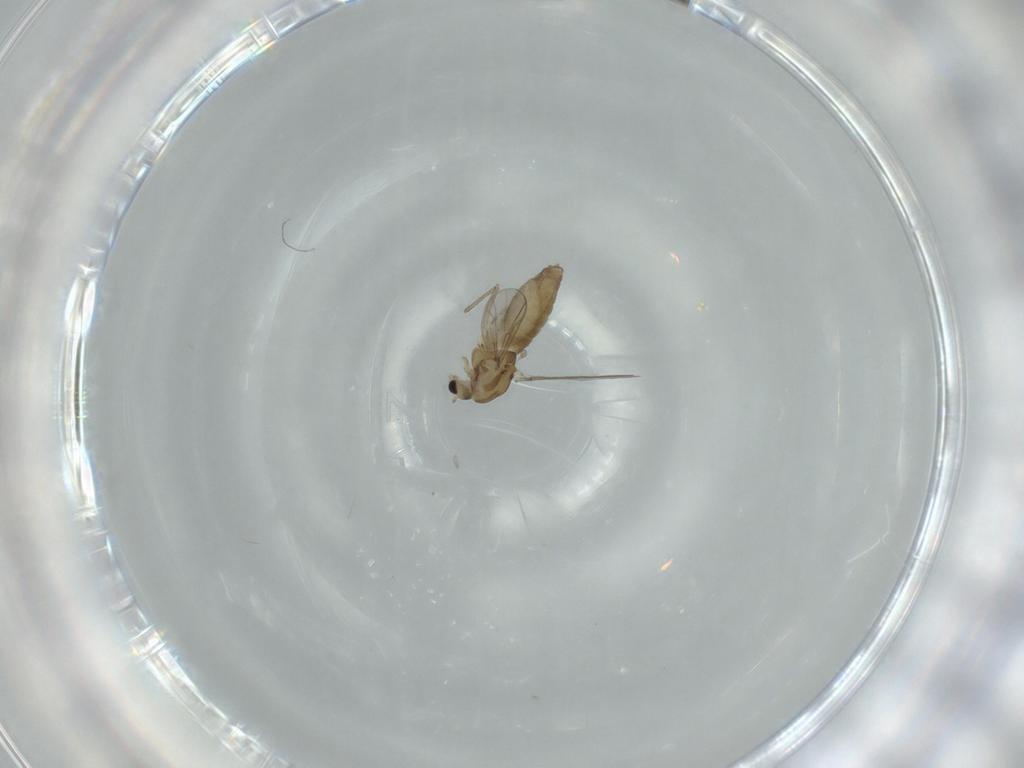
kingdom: Animalia
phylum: Arthropoda
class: Insecta
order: Diptera
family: Chironomidae
